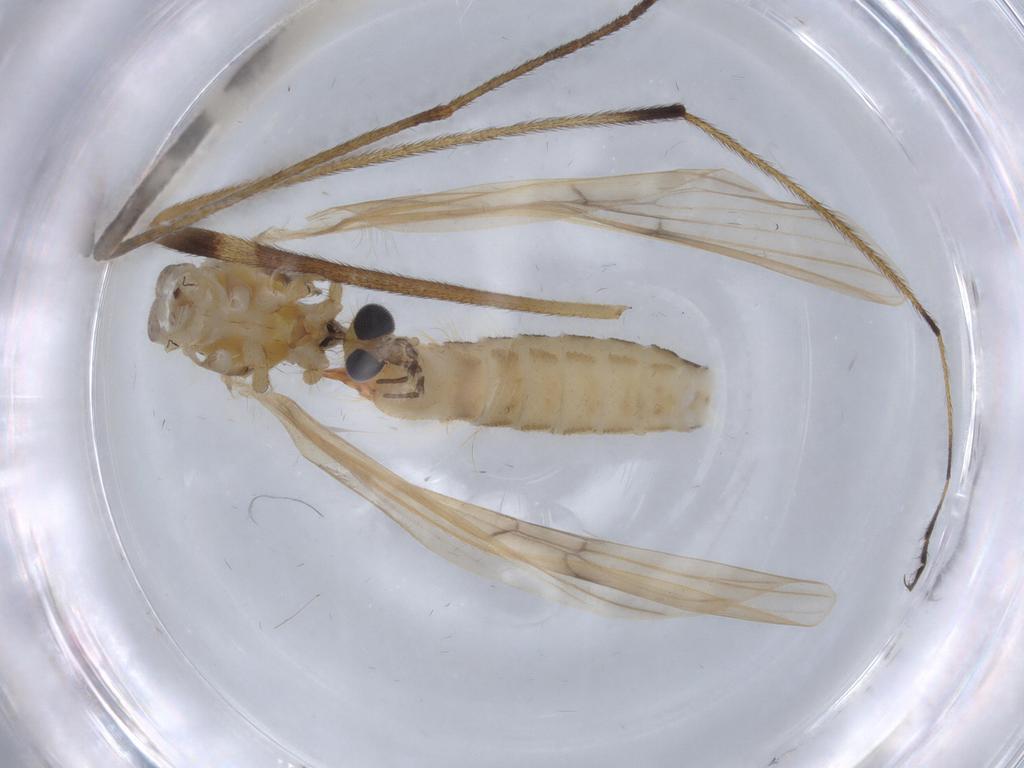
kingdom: Animalia
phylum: Arthropoda
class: Insecta
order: Diptera
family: Limoniidae
